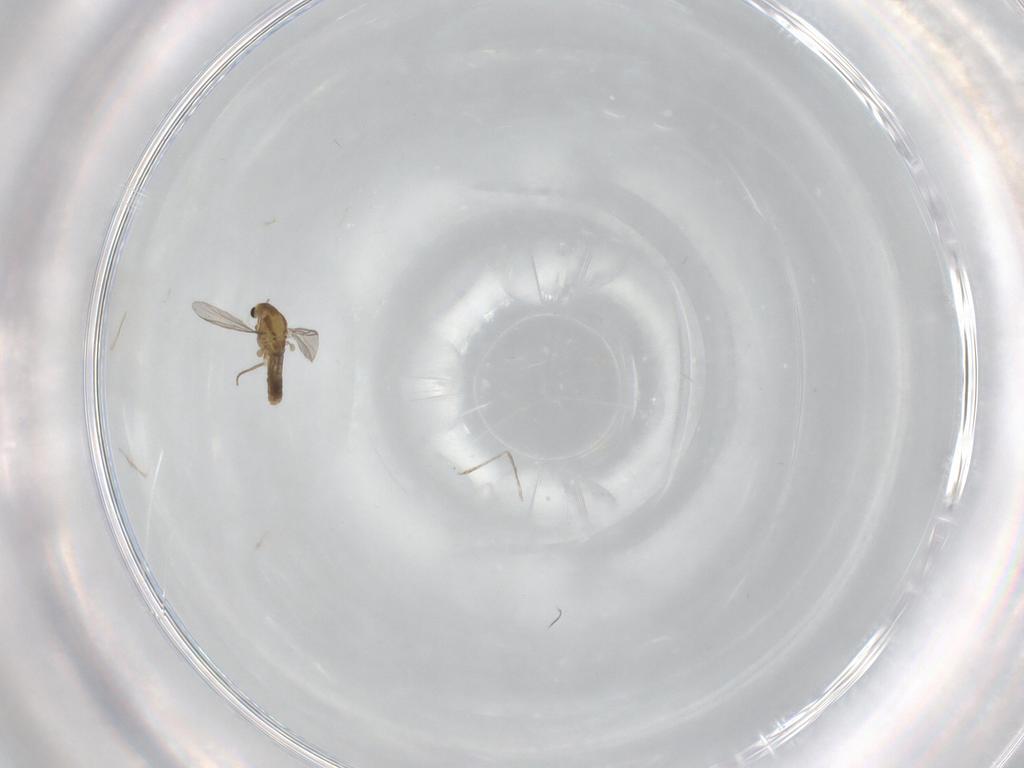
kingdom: Animalia
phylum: Arthropoda
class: Insecta
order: Diptera
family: Chironomidae
